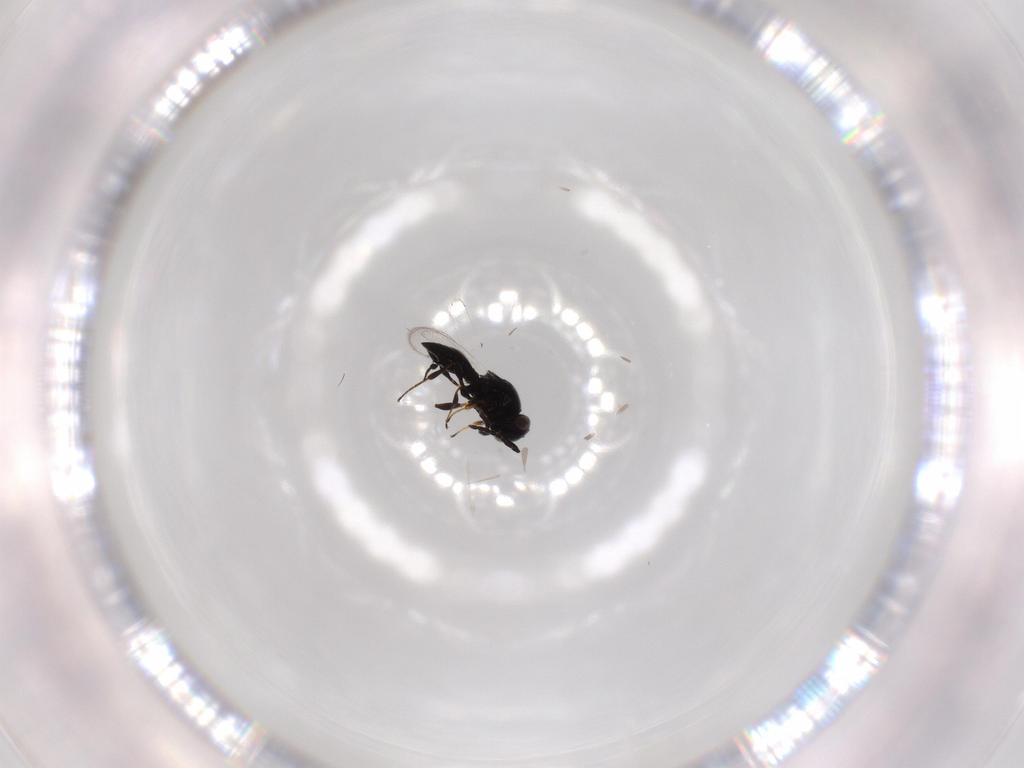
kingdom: Animalia
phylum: Arthropoda
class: Insecta
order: Hymenoptera
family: Platygastridae
